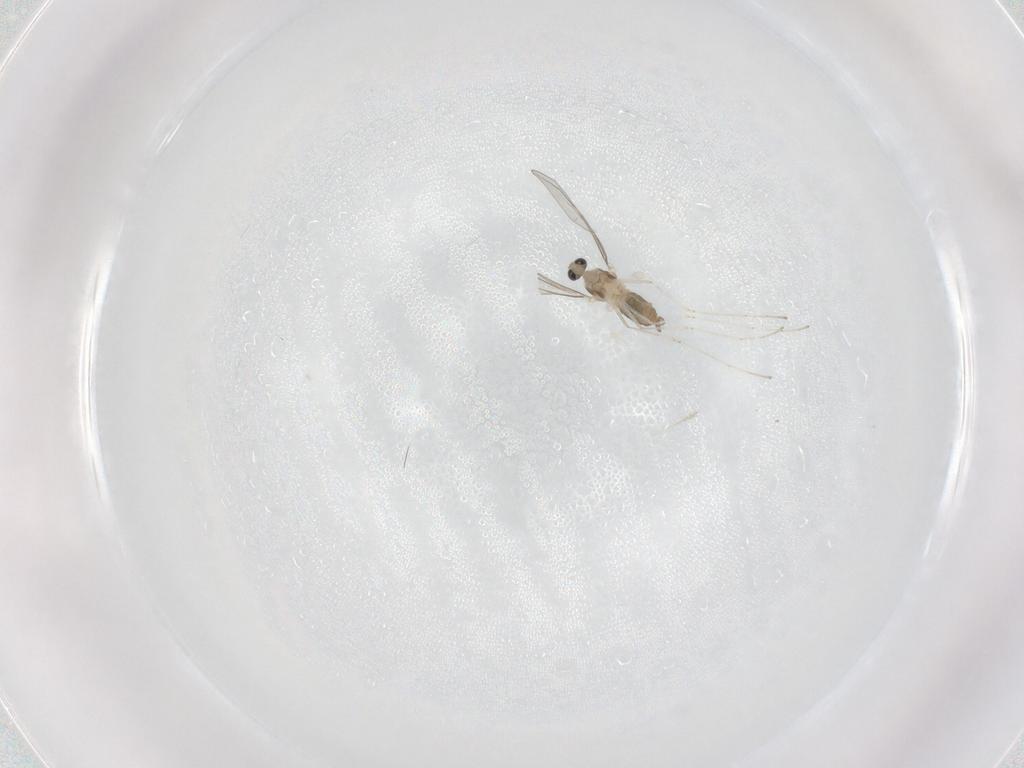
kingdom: Animalia
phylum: Arthropoda
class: Insecta
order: Diptera
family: Cecidomyiidae
